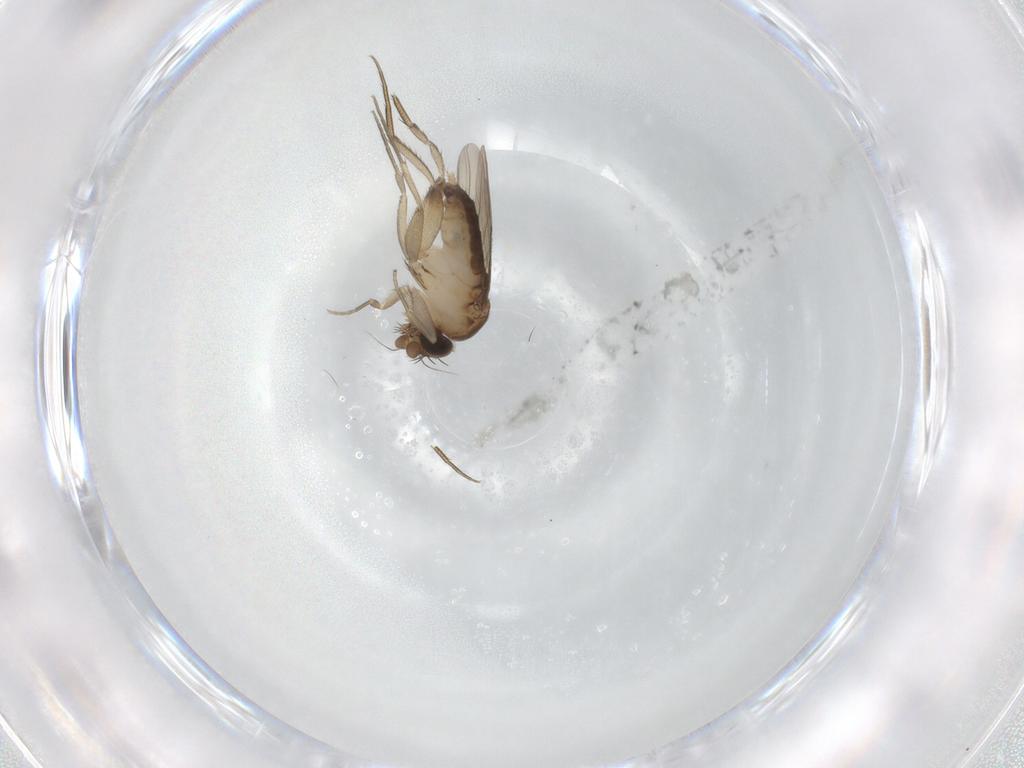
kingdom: Animalia
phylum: Arthropoda
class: Insecta
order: Diptera
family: Phoridae
